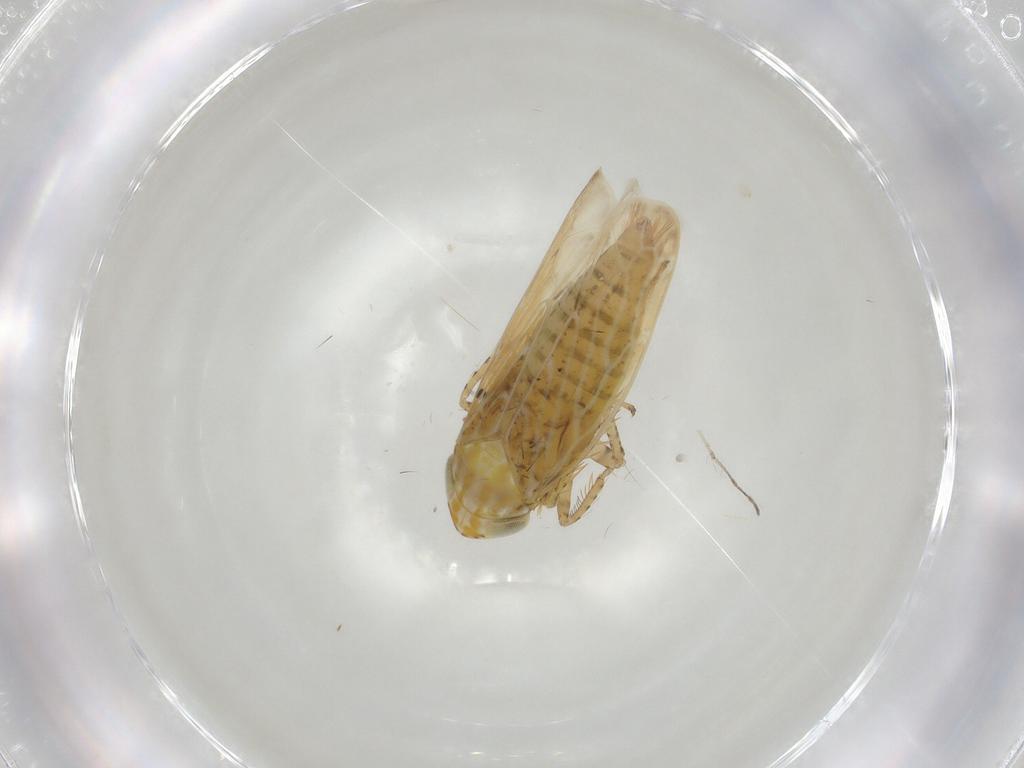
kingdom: Animalia
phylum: Arthropoda
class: Insecta
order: Hemiptera
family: Cicadellidae
